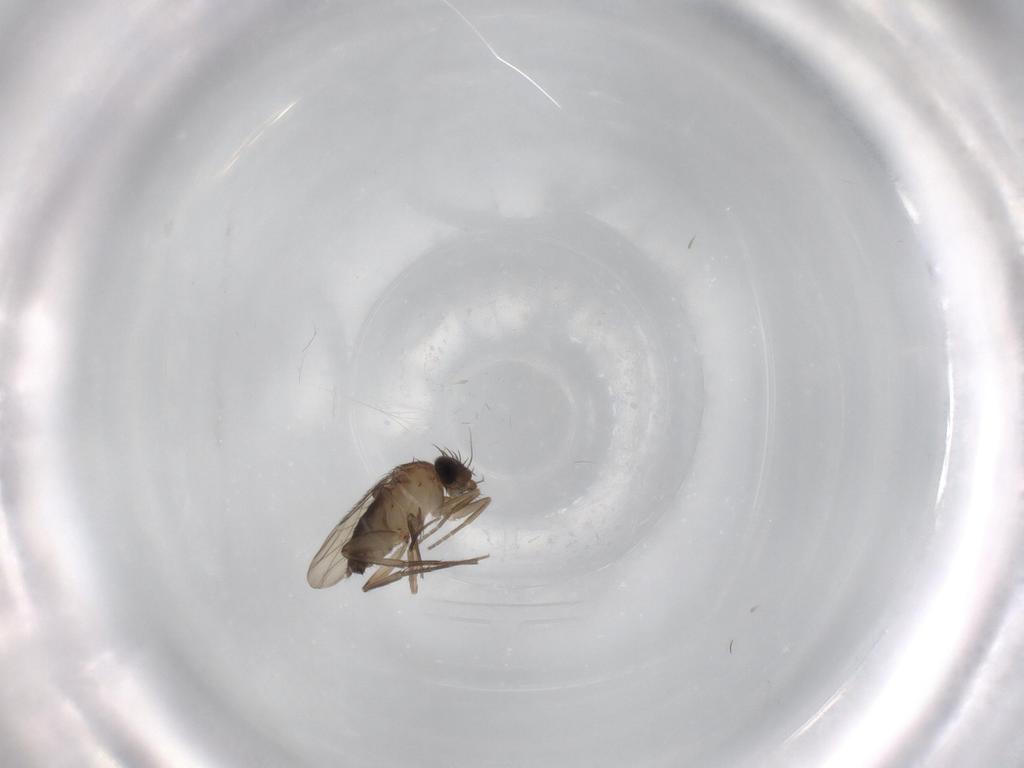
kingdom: Animalia
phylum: Arthropoda
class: Insecta
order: Diptera
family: Phoridae
